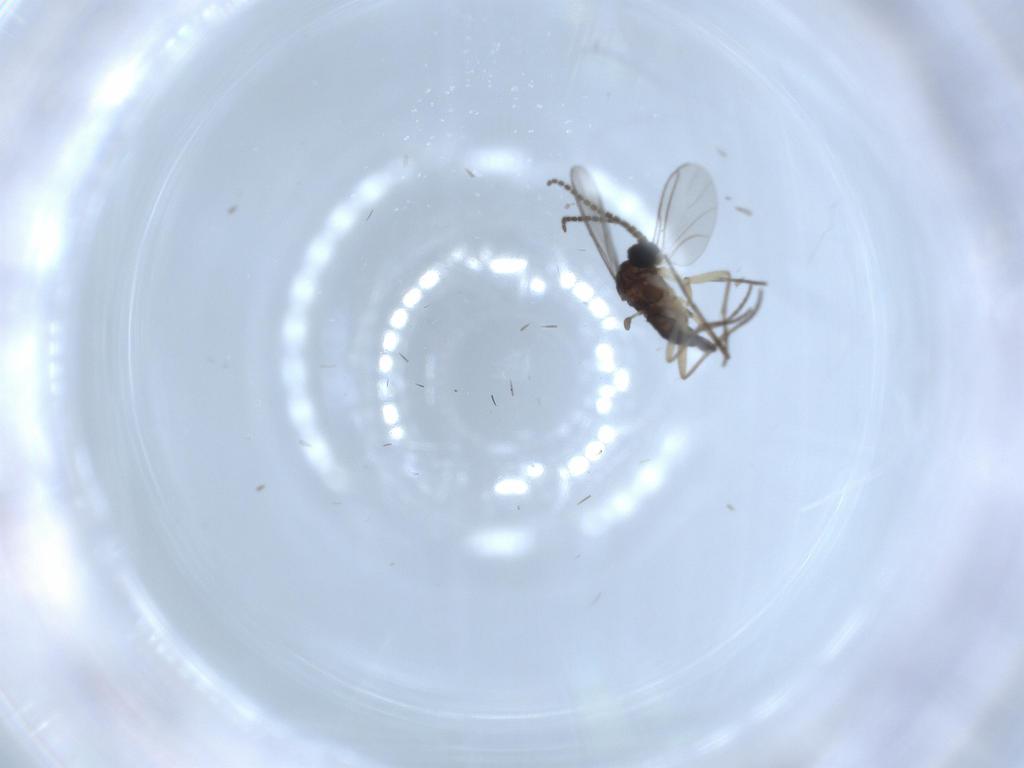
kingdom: Animalia
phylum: Arthropoda
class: Insecta
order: Diptera
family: Sciaridae
